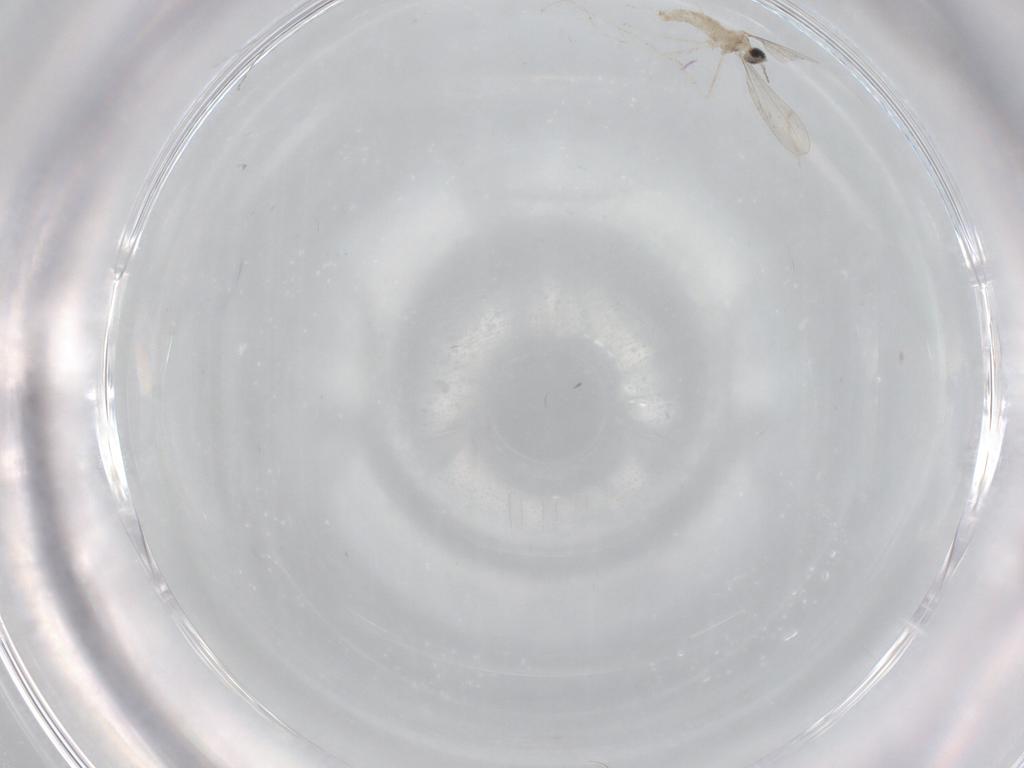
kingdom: Animalia
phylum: Arthropoda
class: Insecta
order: Diptera
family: Cecidomyiidae
